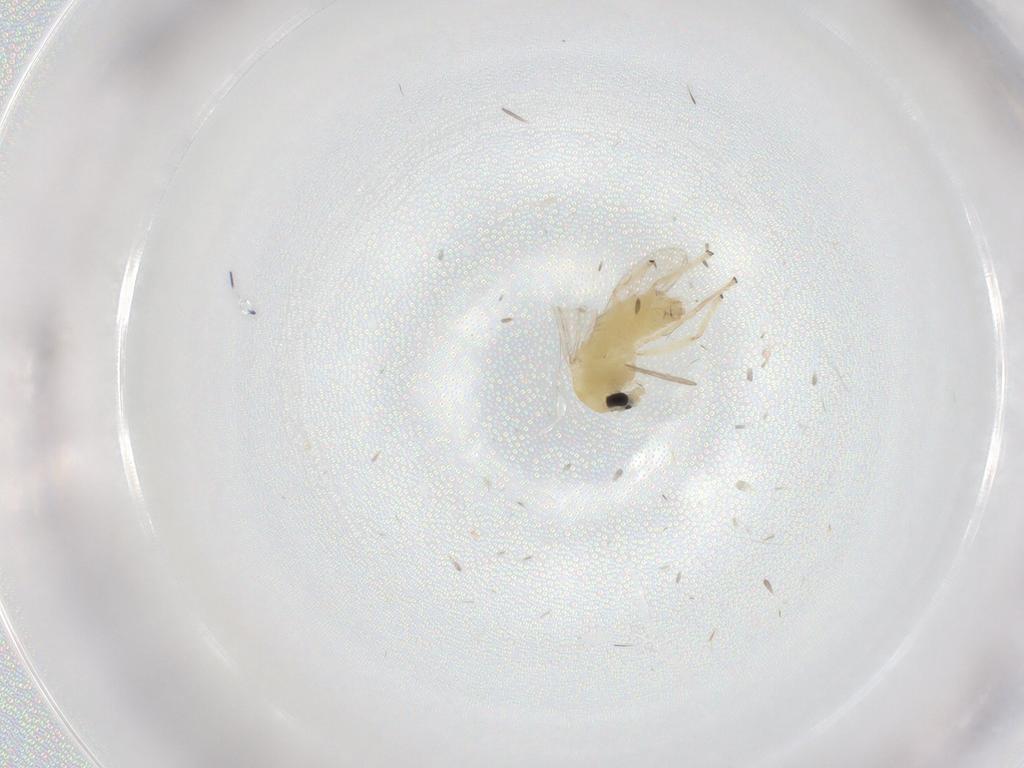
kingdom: Animalia
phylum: Arthropoda
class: Insecta
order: Diptera
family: Chironomidae
